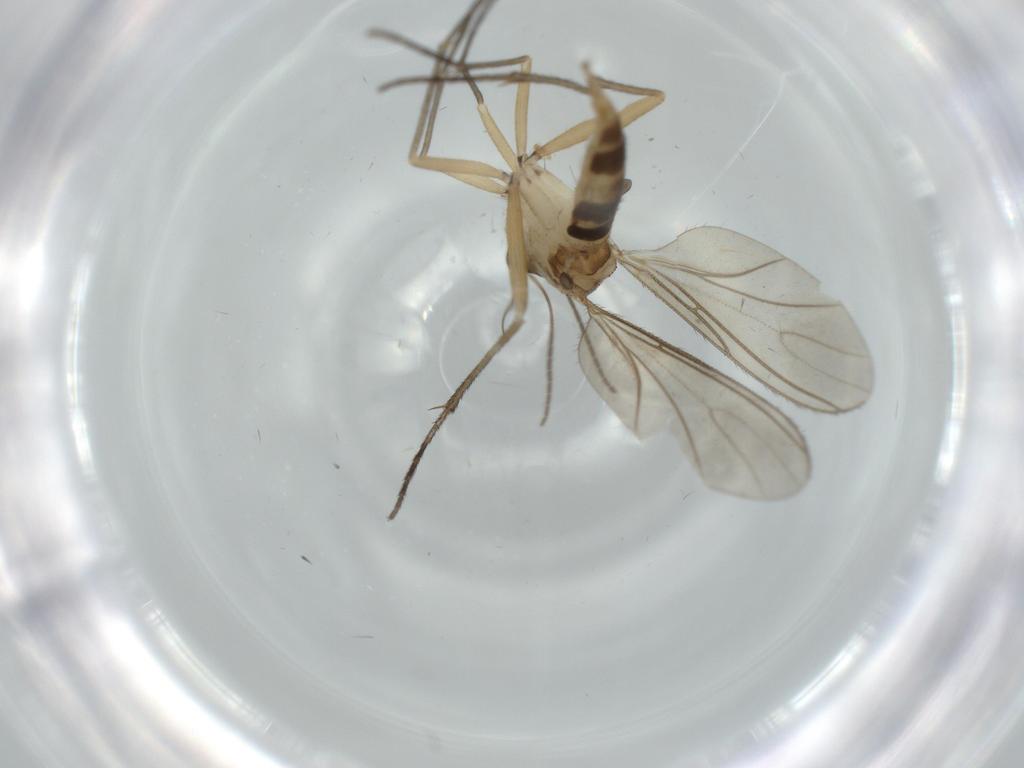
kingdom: Animalia
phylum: Arthropoda
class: Insecta
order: Diptera
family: Sciaridae
